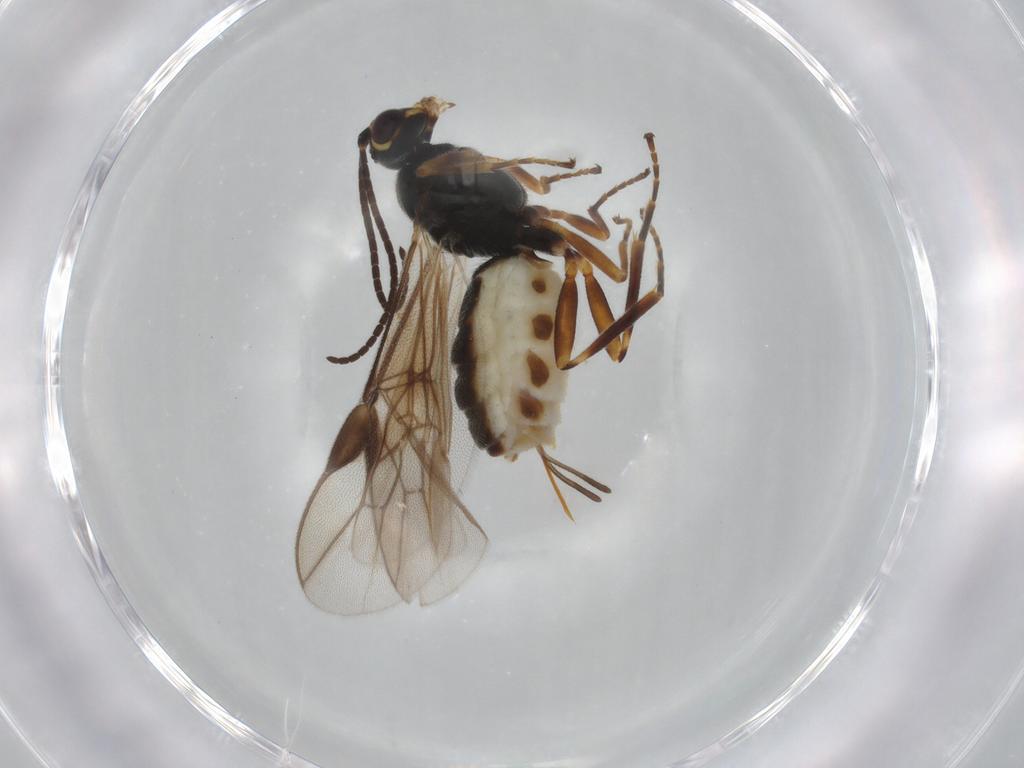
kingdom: Animalia
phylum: Arthropoda
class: Insecta
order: Hymenoptera
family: Braconidae
